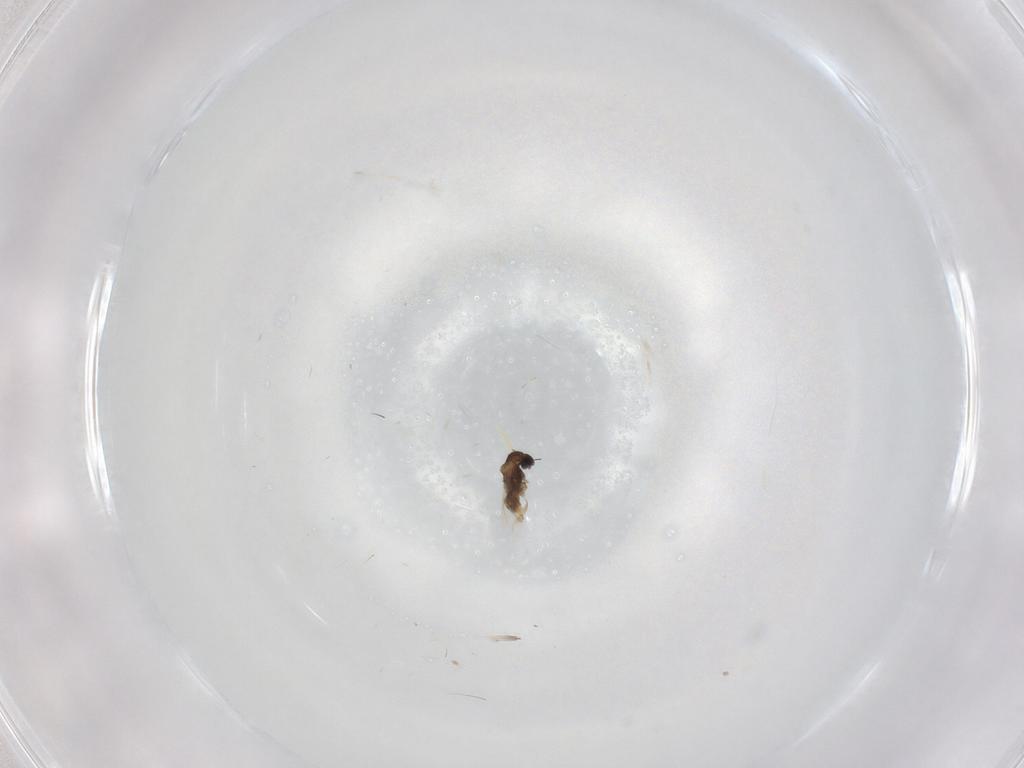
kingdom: Animalia
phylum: Arthropoda
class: Insecta
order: Diptera
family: Cecidomyiidae
